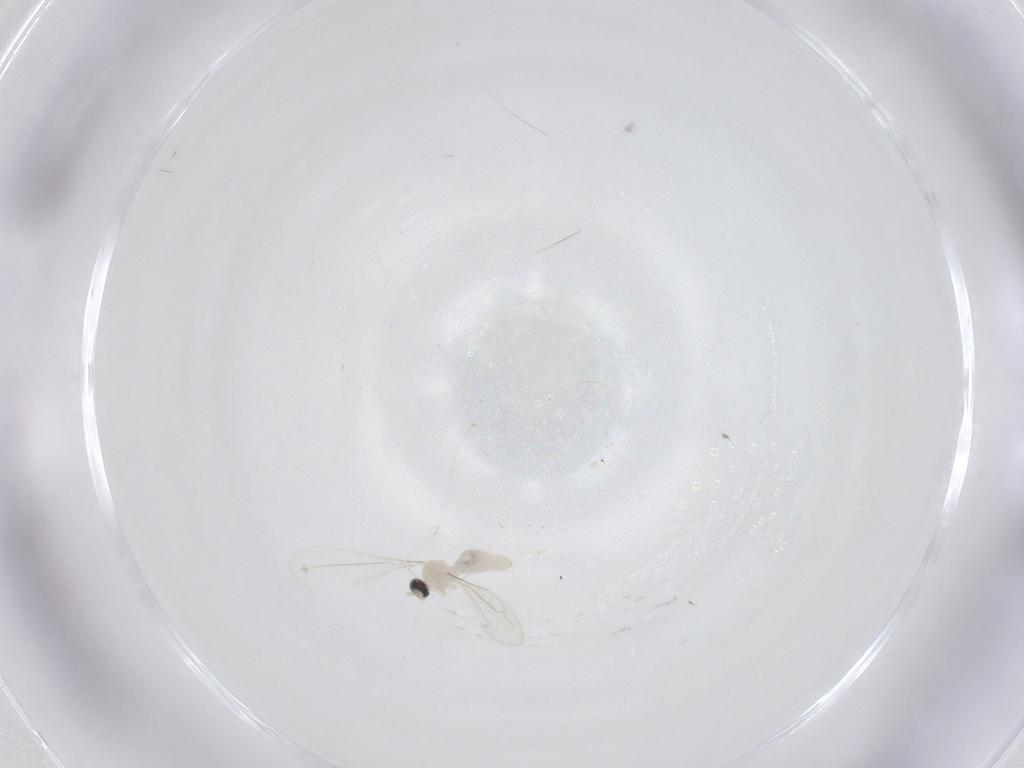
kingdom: Animalia
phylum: Arthropoda
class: Insecta
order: Diptera
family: Cecidomyiidae
